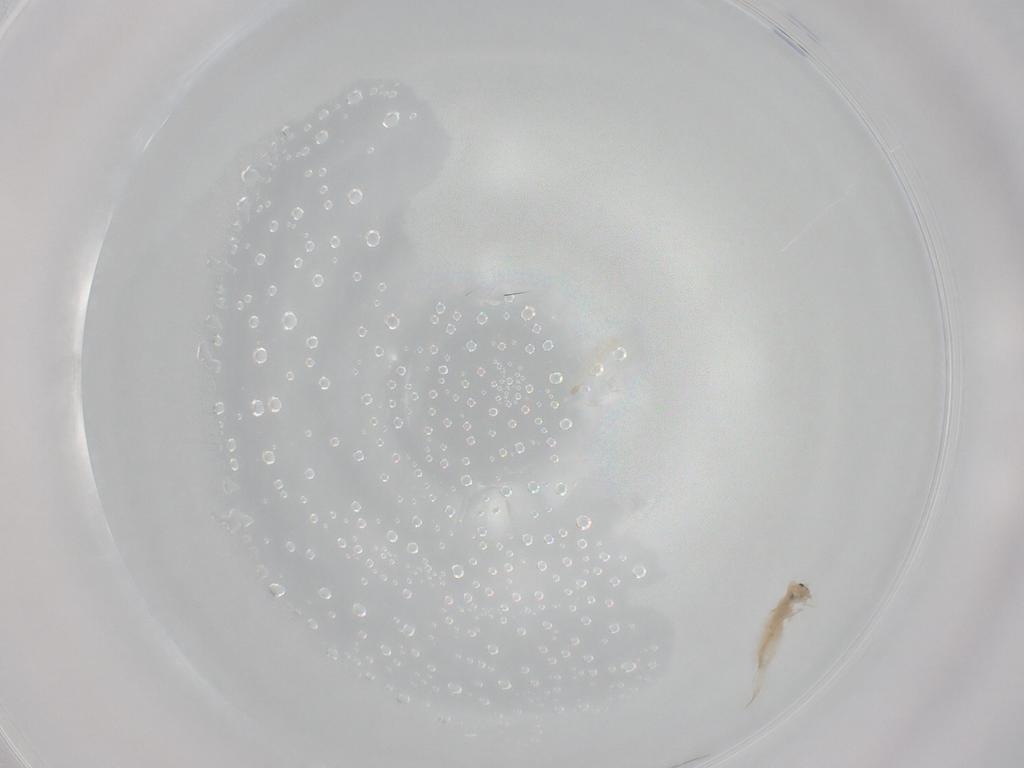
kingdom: Animalia
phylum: Arthropoda
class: Collembola
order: Entomobryomorpha
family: Entomobryidae
